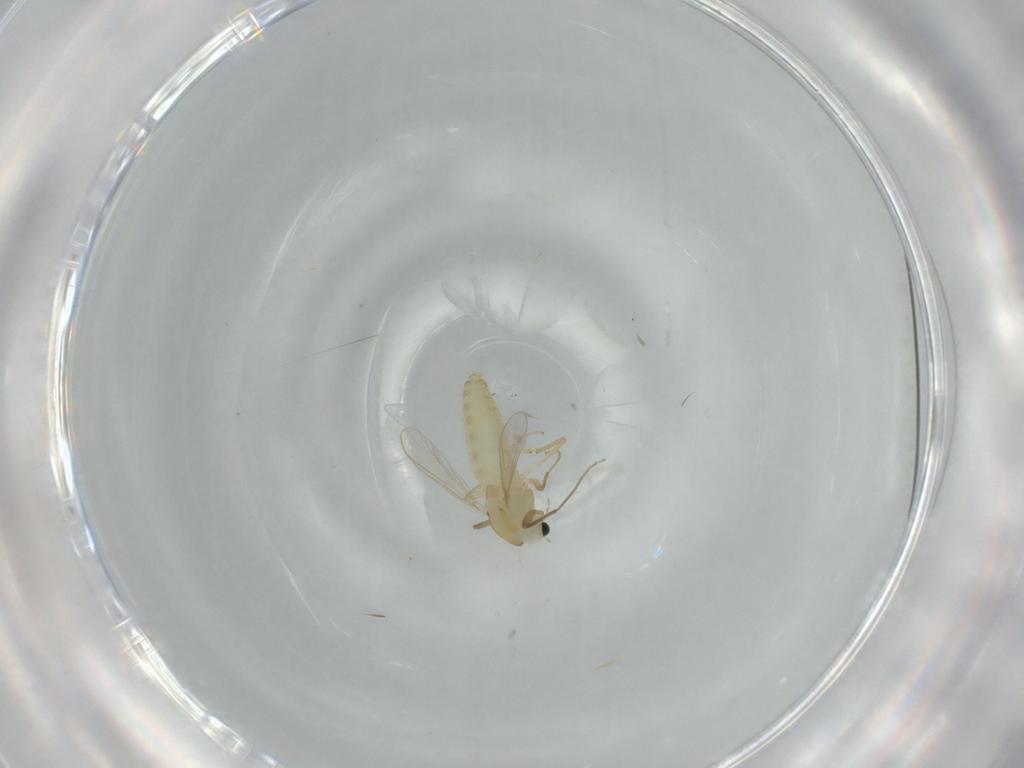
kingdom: Animalia
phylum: Arthropoda
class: Insecta
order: Diptera
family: Chironomidae
